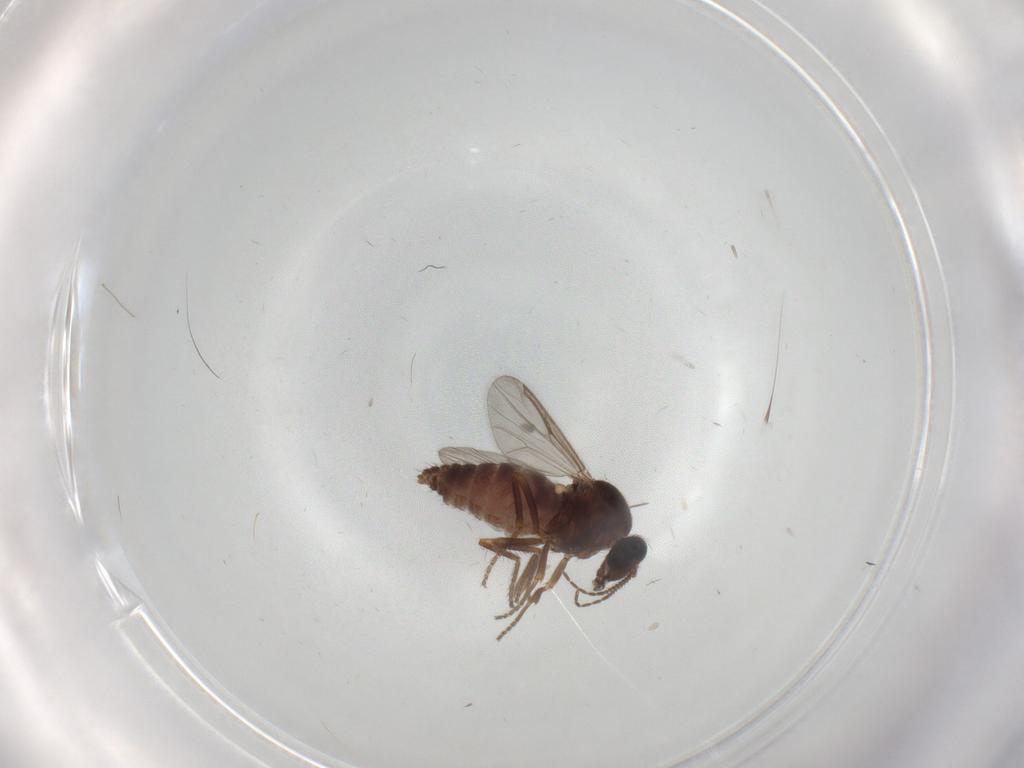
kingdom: Animalia
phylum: Arthropoda
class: Insecta
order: Diptera
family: Ceratopogonidae
